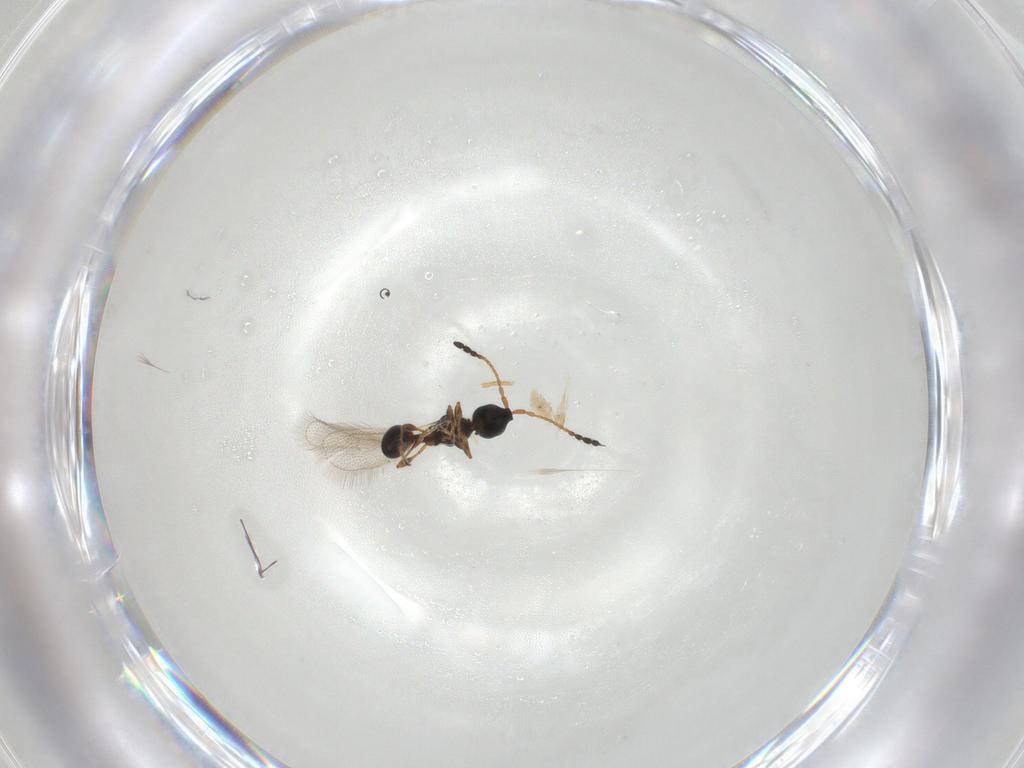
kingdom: Animalia
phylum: Arthropoda
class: Insecta
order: Hymenoptera
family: Diapriidae
